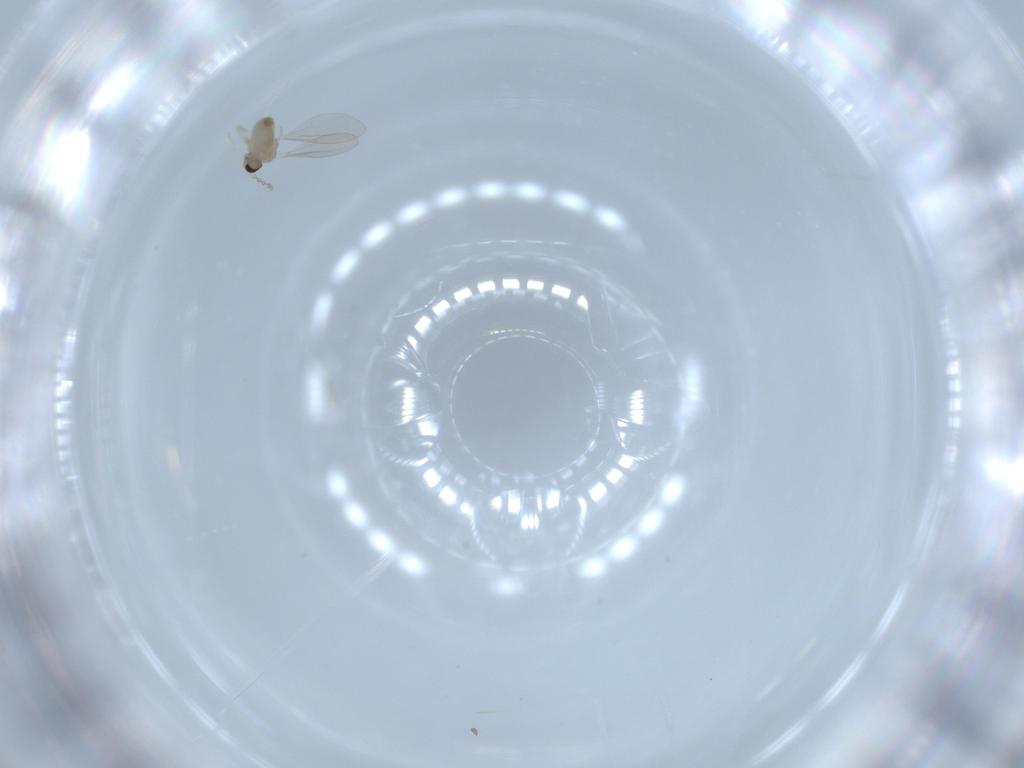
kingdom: Animalia
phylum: Arthropoda
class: Insecta
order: Diptera
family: Cecidomyiidae
